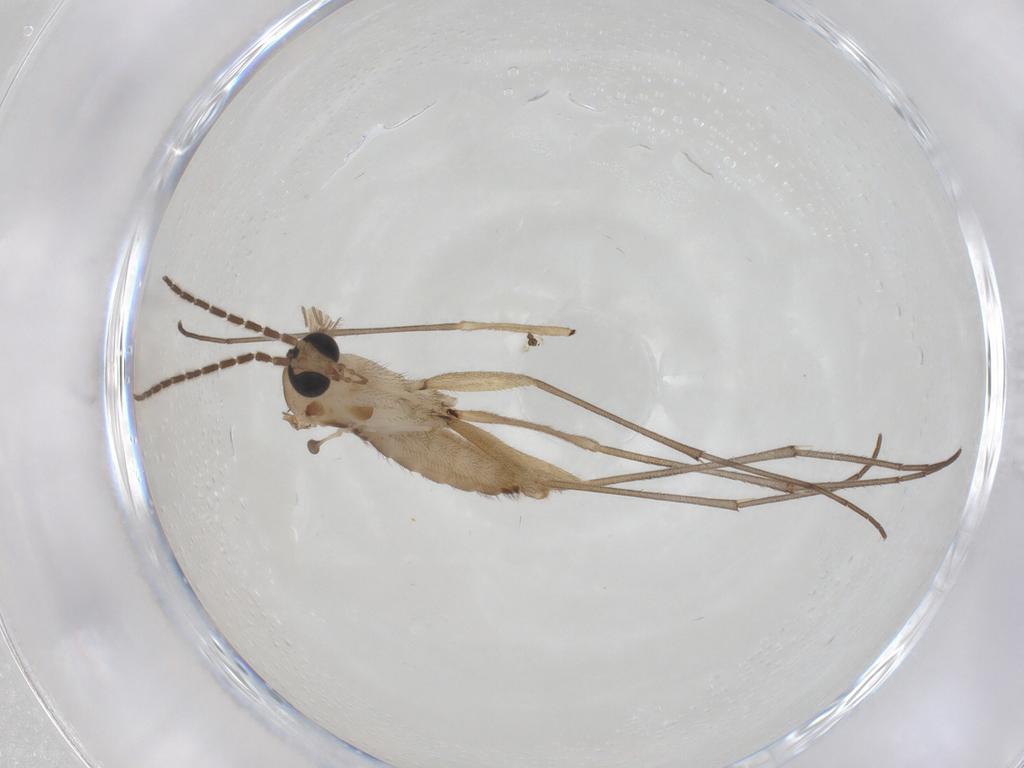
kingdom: Animalia
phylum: Arthropoda
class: Insecta
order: Diptera
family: Sciaridae
